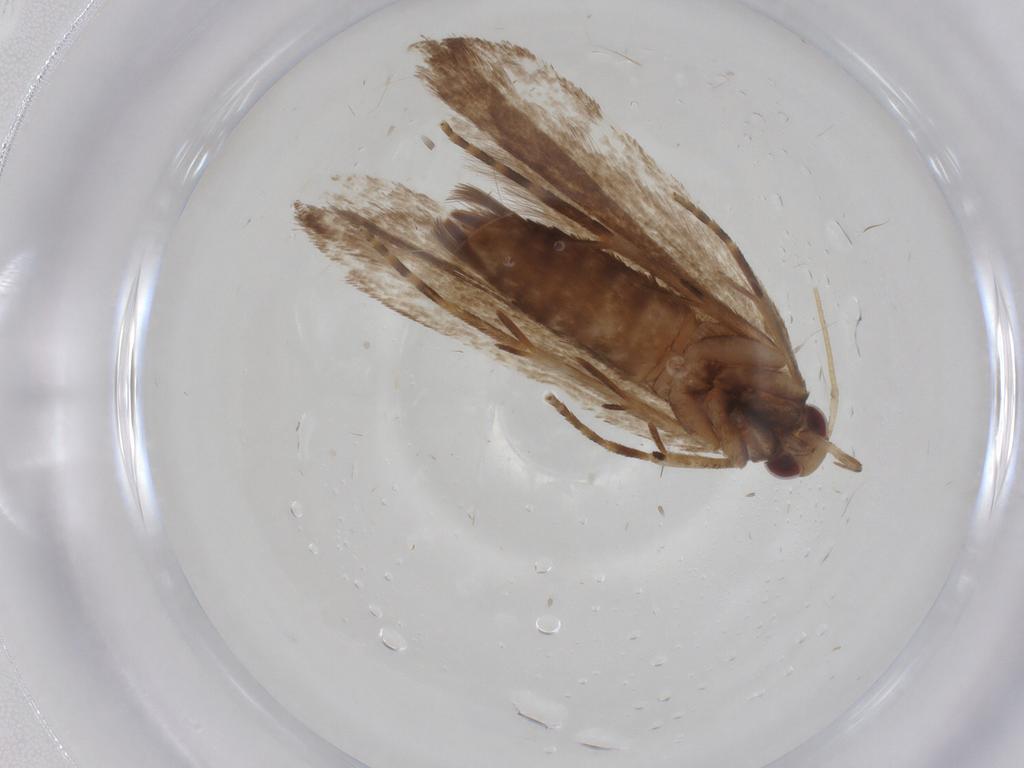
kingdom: Animalia
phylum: Arthropoda
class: Insecta
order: Lepidoptera
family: Gelechiidae
